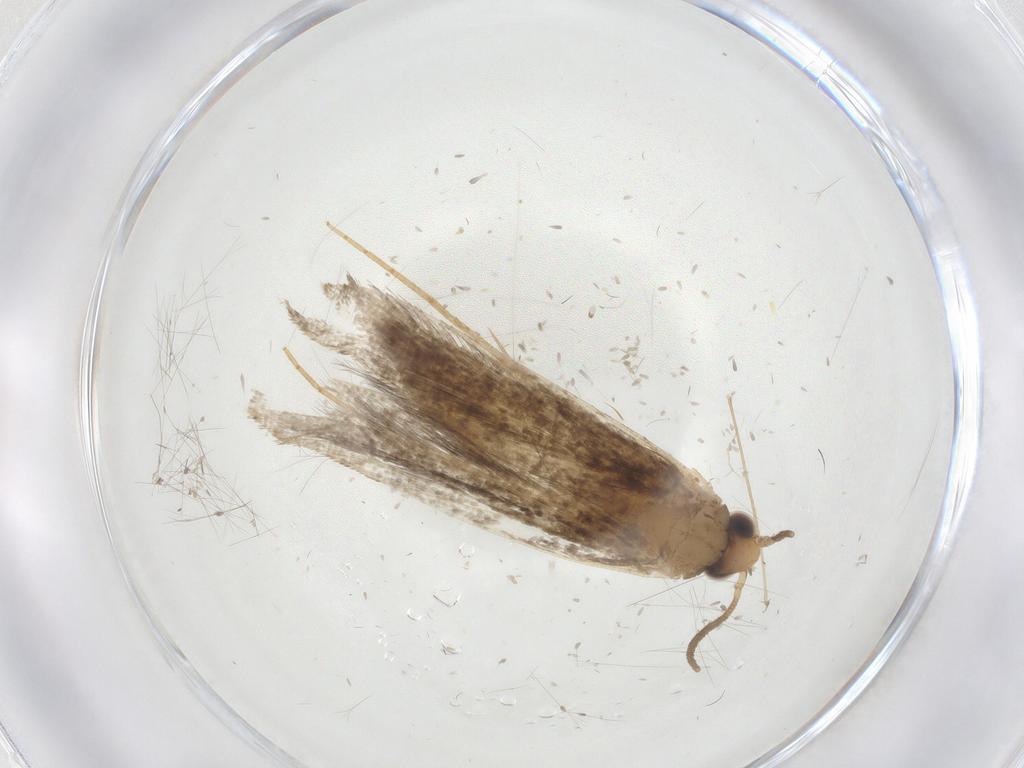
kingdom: Animalia
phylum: Arthropoda
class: Insecta
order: Lepidoptera
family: Tineidae
